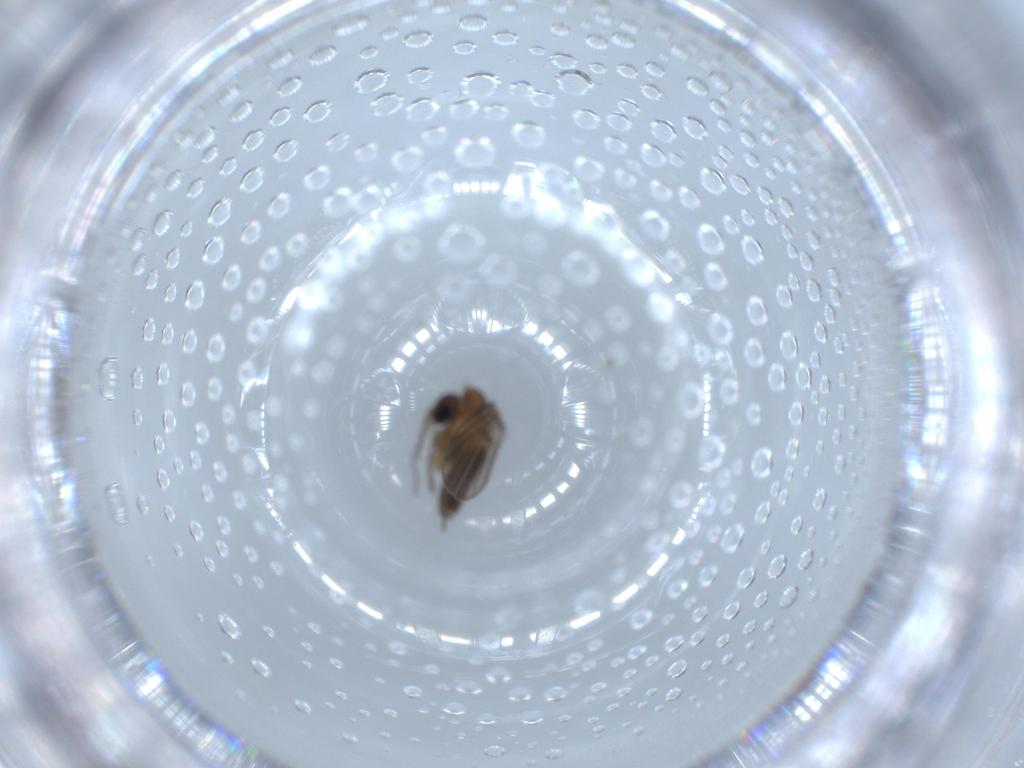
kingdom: Animalia
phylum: Arthropoda
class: Insecta
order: Diptera
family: Psychodidae
